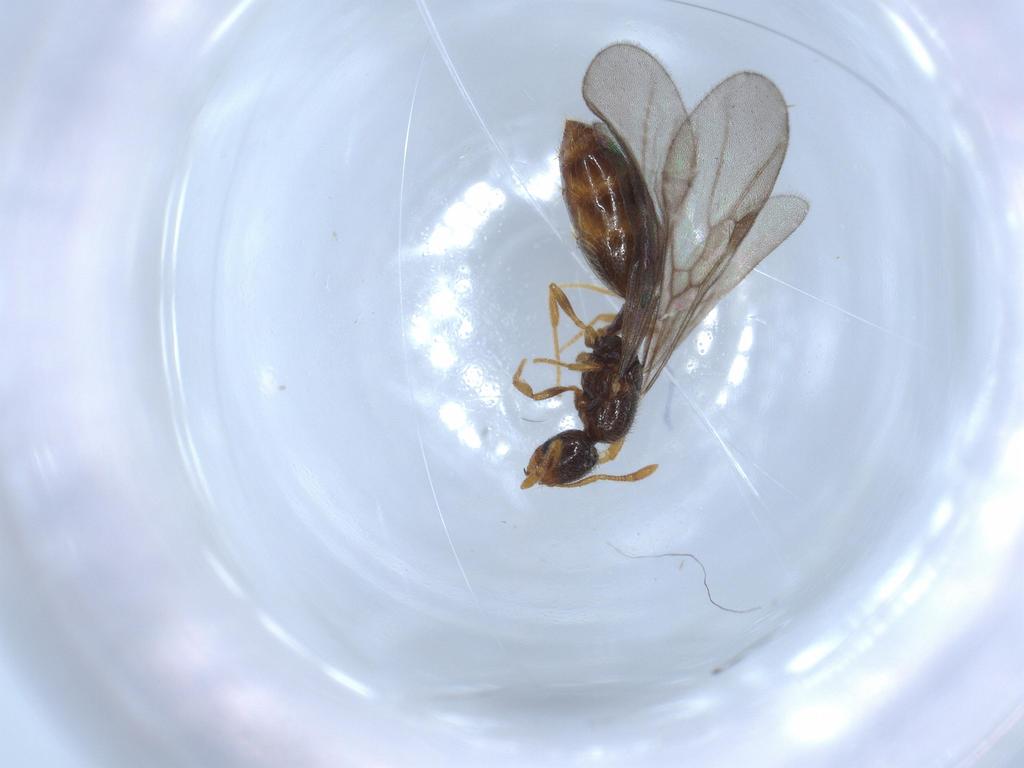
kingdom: Animalia
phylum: Arthropoda
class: Insecta
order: Hymenoptera
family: Formicidae
